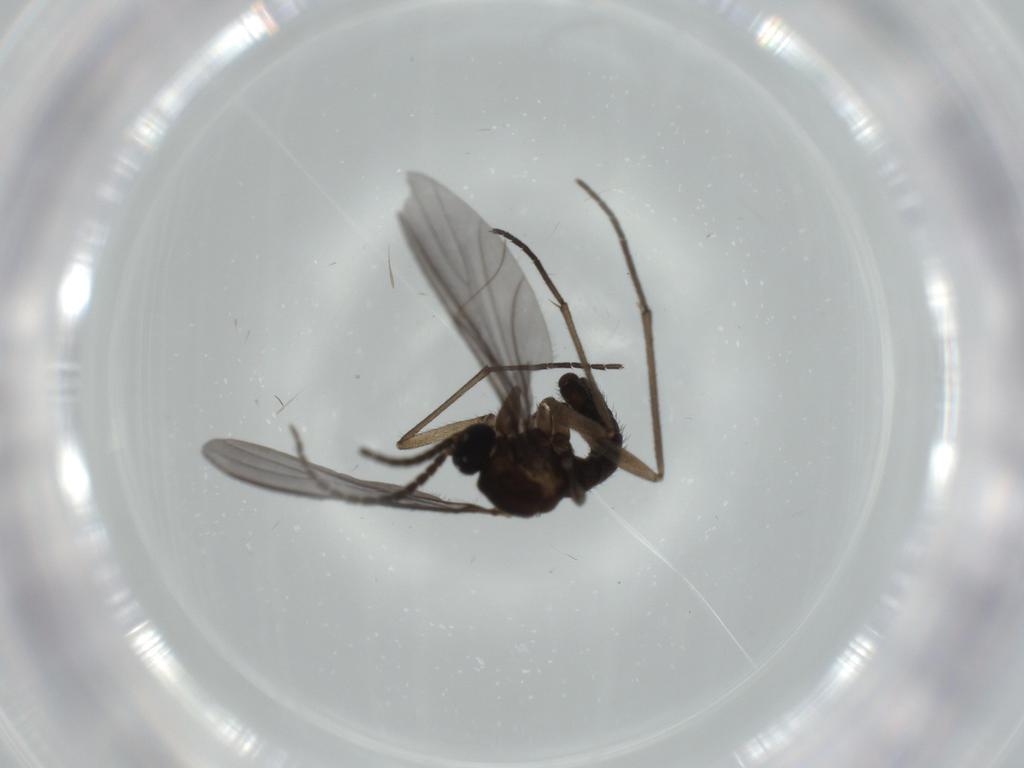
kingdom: Animalia
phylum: Arthropoda
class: Insecta
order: Diptera
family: Sciaridae
